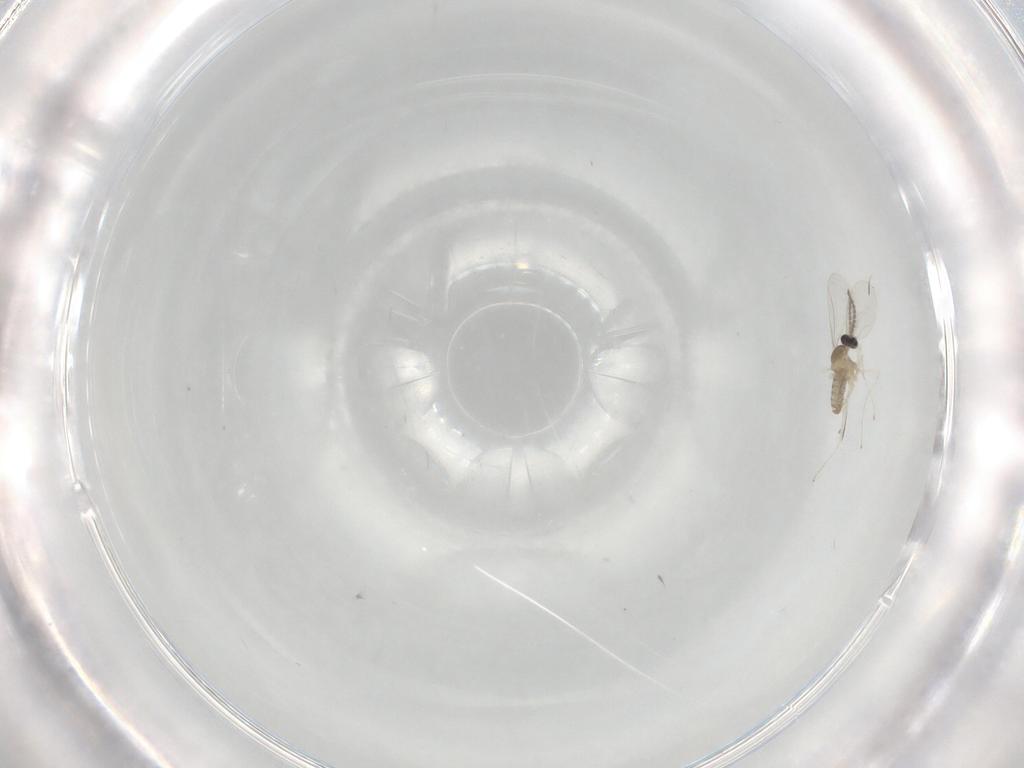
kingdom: Animalia
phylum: Arthropoda
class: Insecta
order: Diptera
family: Cecidomyiidae
